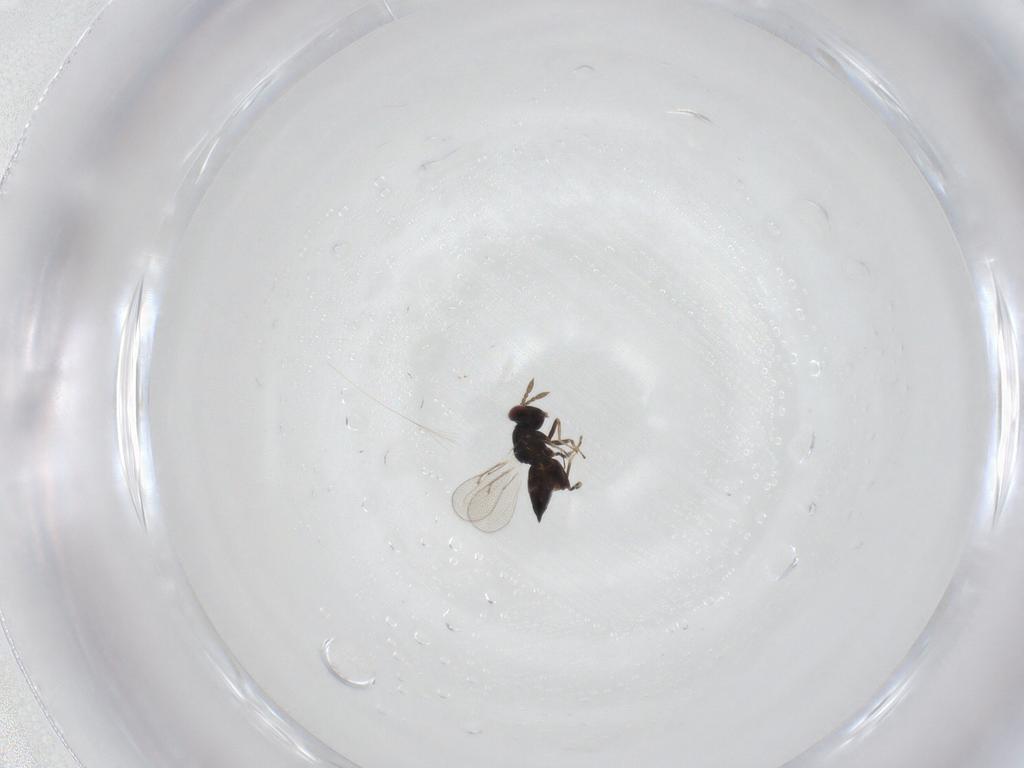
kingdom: Animalia
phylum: Arthropoda
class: Insecta
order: Hymenoptera
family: Eulophidae
